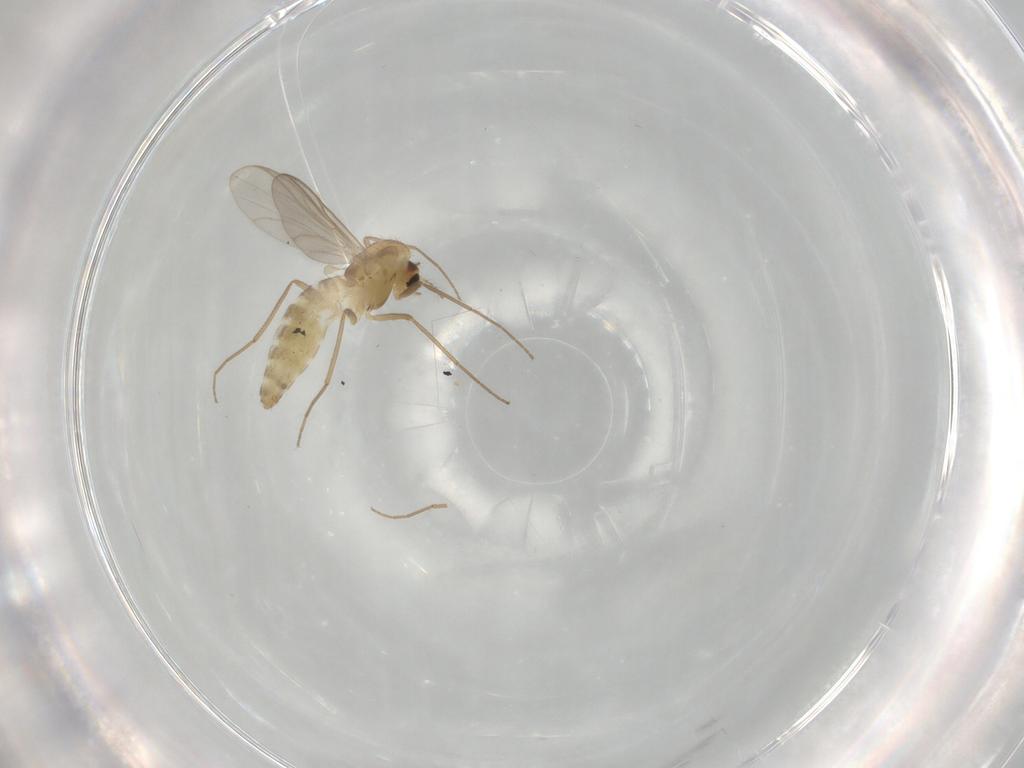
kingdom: Animalia
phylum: Arthropoda
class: Insecta
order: Diptera
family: Chironomidae
